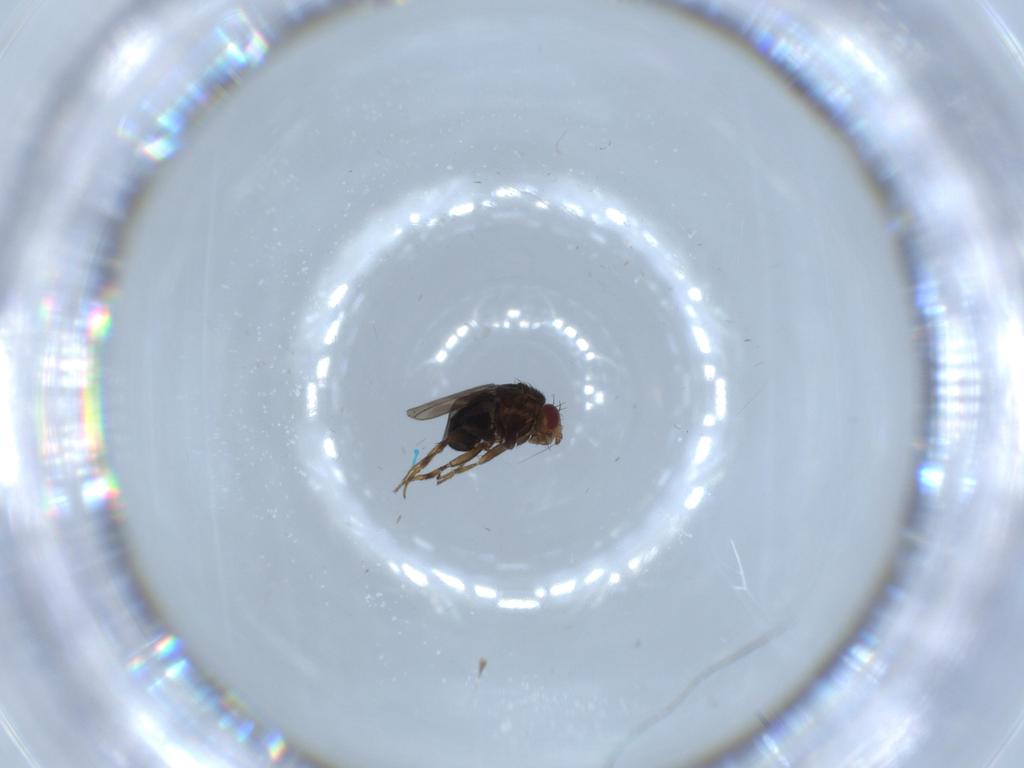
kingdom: Animalia
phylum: Arthropoda
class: Insecta
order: Diptera
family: Sphaeroceridae
